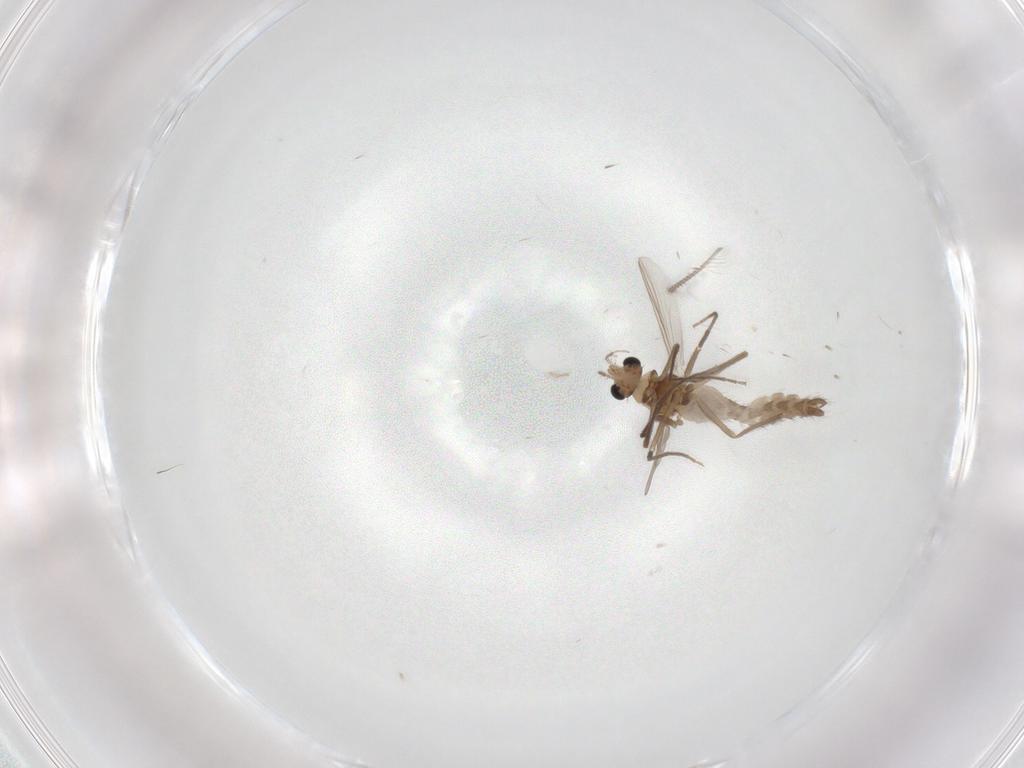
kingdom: Animalia
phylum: Arthropoda
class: Insecta
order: Diptera
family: Chironomidae
